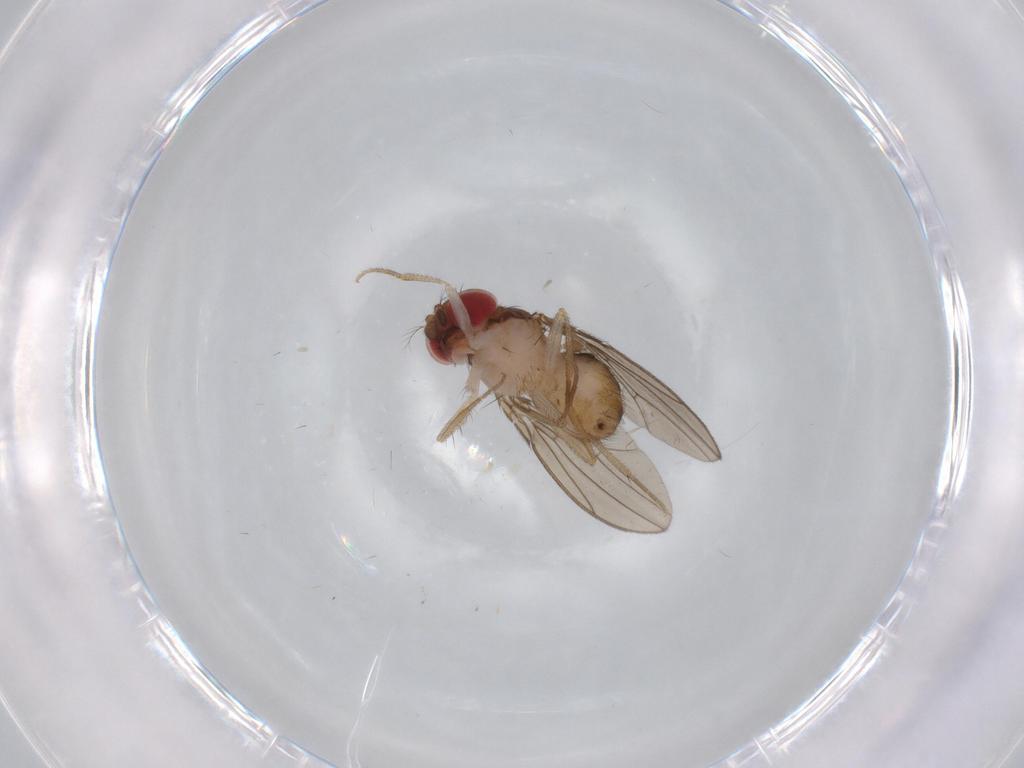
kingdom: Animalia
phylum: Arthropoda
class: Insecta
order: Diptera
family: Drosophilidae
